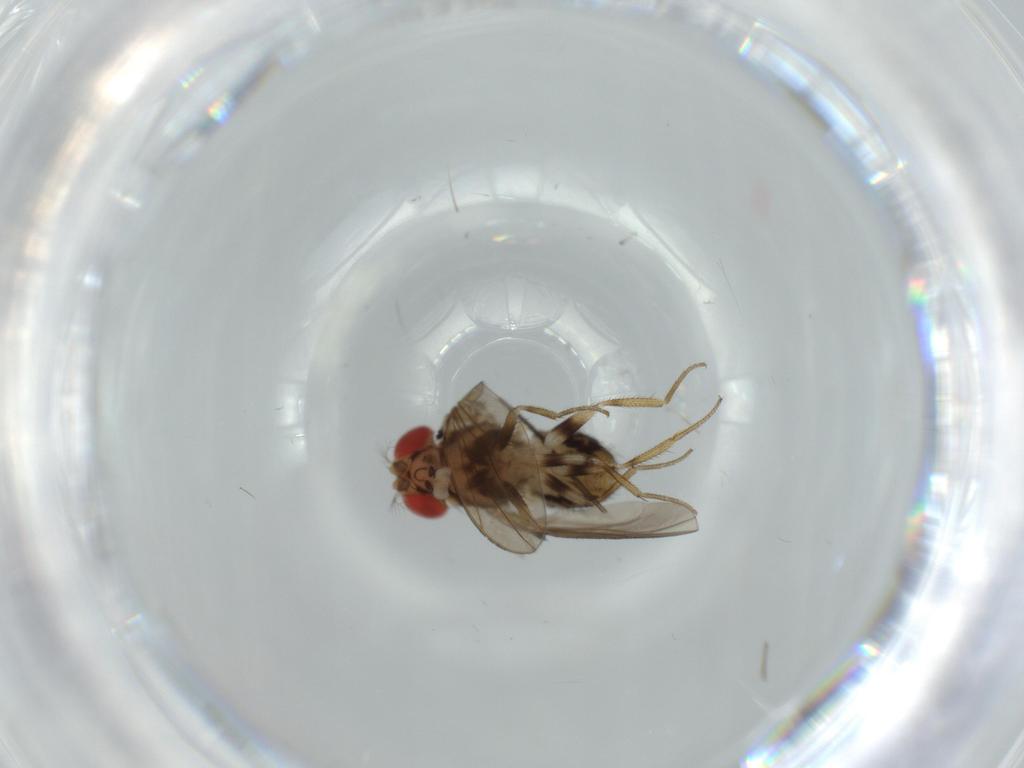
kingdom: Animalia
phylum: Arthropoda
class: Insecta
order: Diptera
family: Drosophilidae
